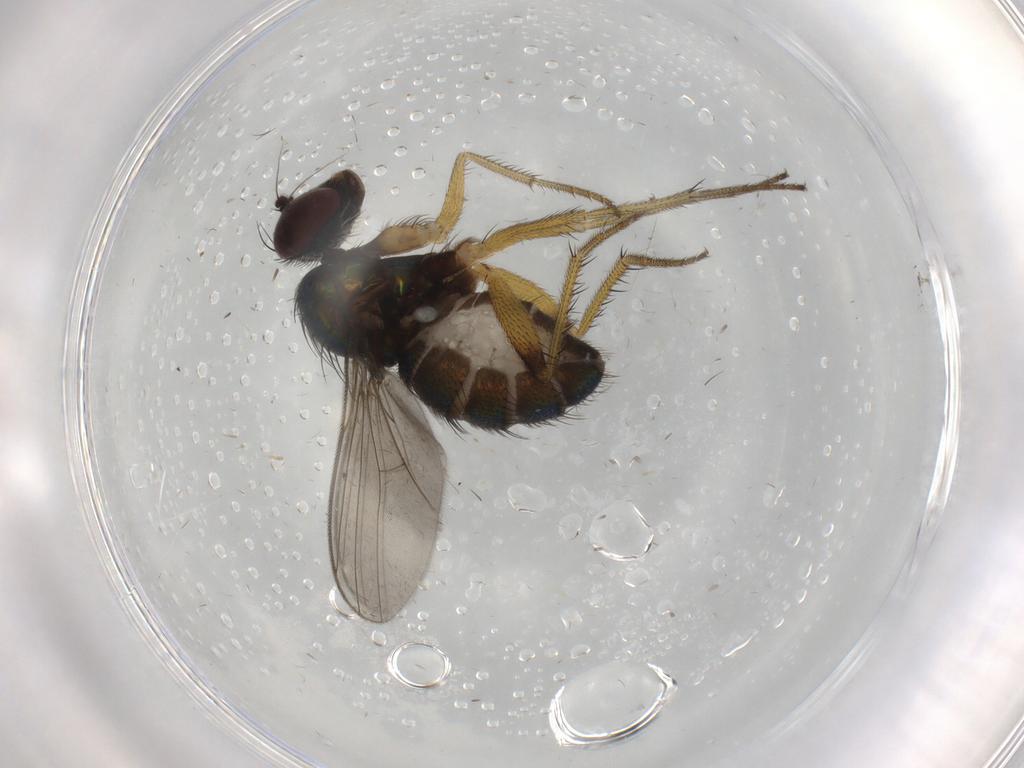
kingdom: Animalia
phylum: Arthropoda
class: Insecta
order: Diptera
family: Dolichopodidae
